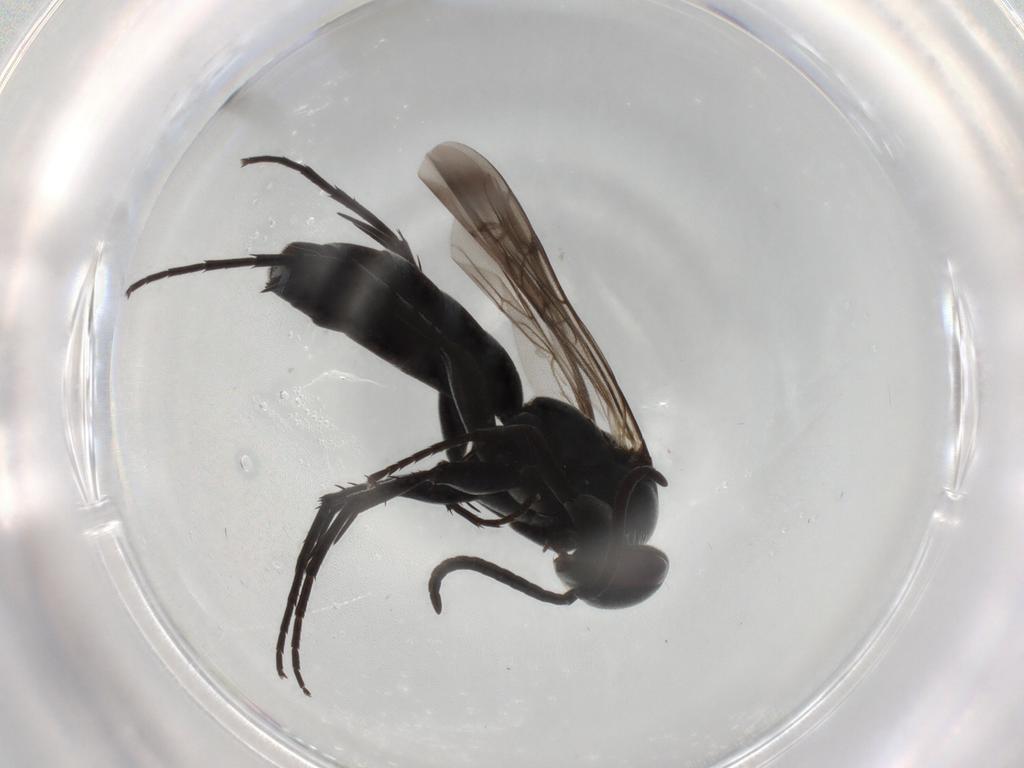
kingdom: Animalia
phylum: Arthropoda
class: Insecta
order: Hymenoptera
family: Pompilidae
